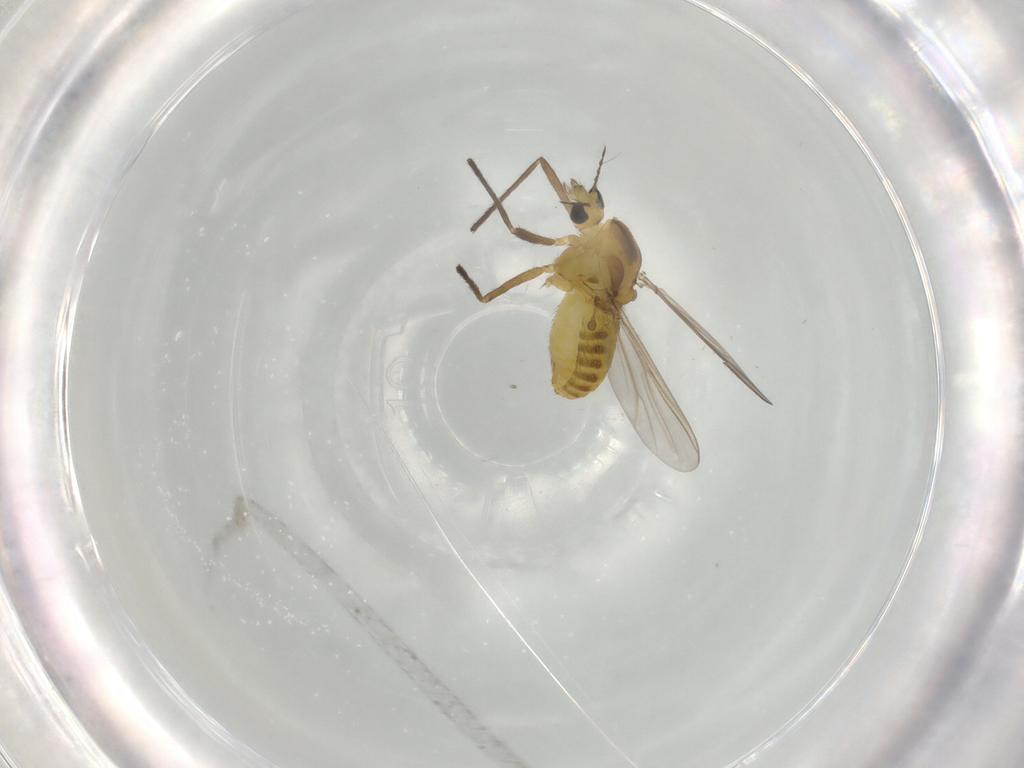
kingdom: Animalia
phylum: Arthropoda
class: Insecta
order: Diptera
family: Chironomidae
